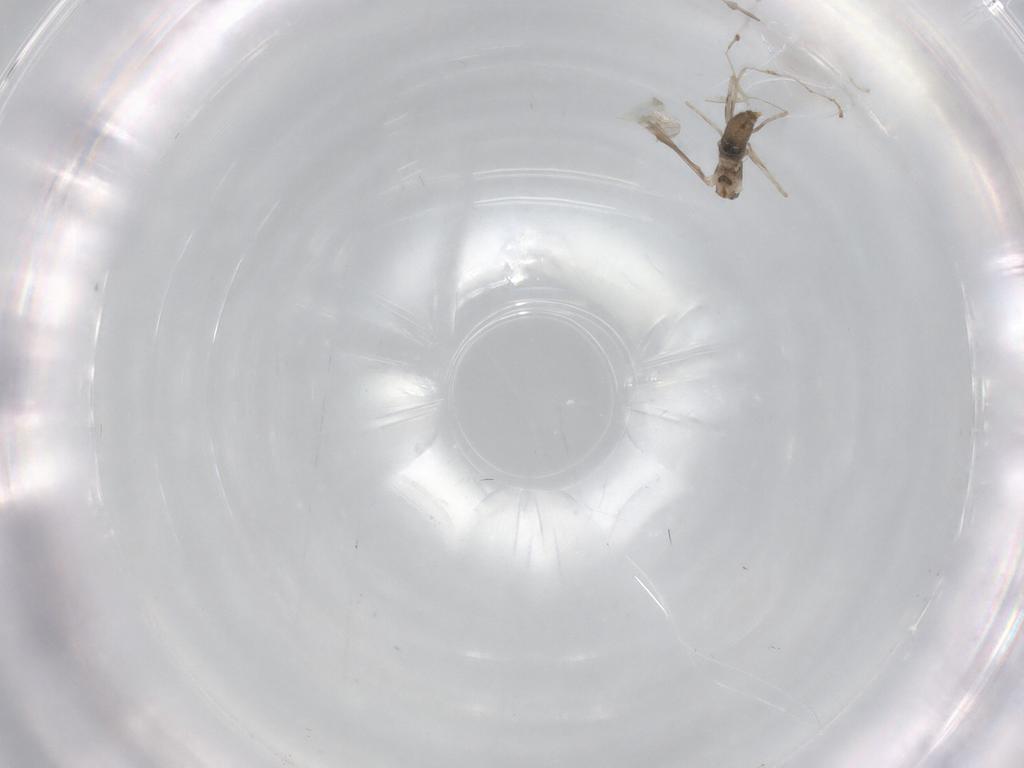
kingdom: Animalia
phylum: Arthropoda
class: Insecta
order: Diptera
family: Cecidomyiidae
